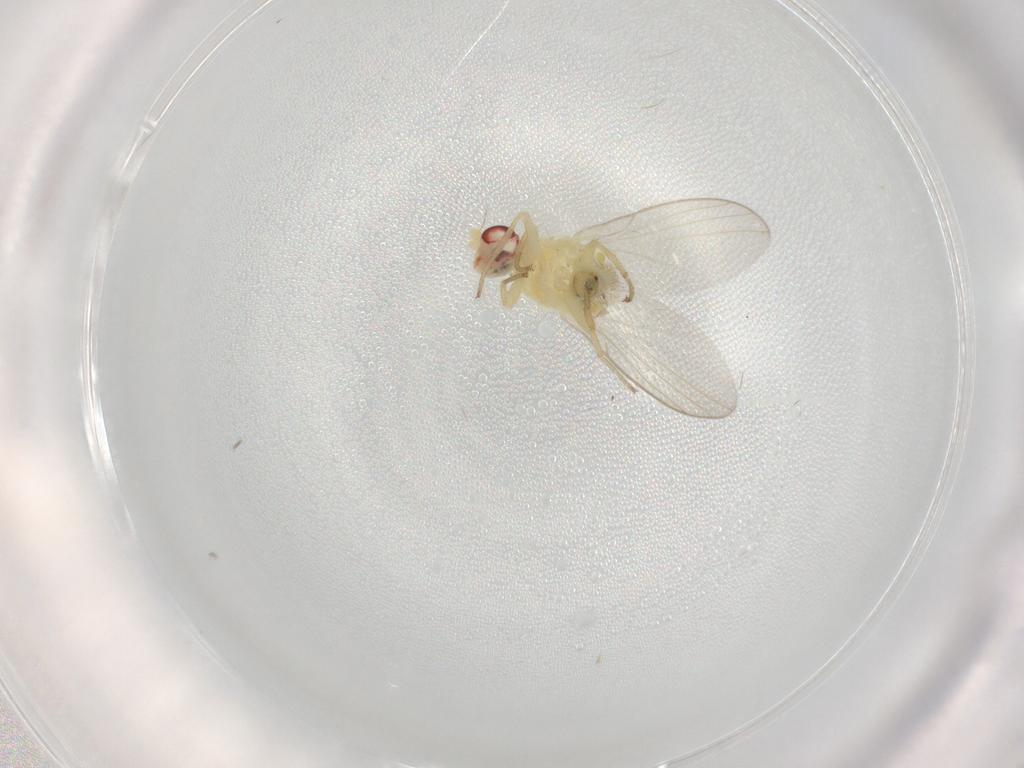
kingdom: Animalia
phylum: Arthropoda
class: Insecta
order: Diptera
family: Agromyzidae
